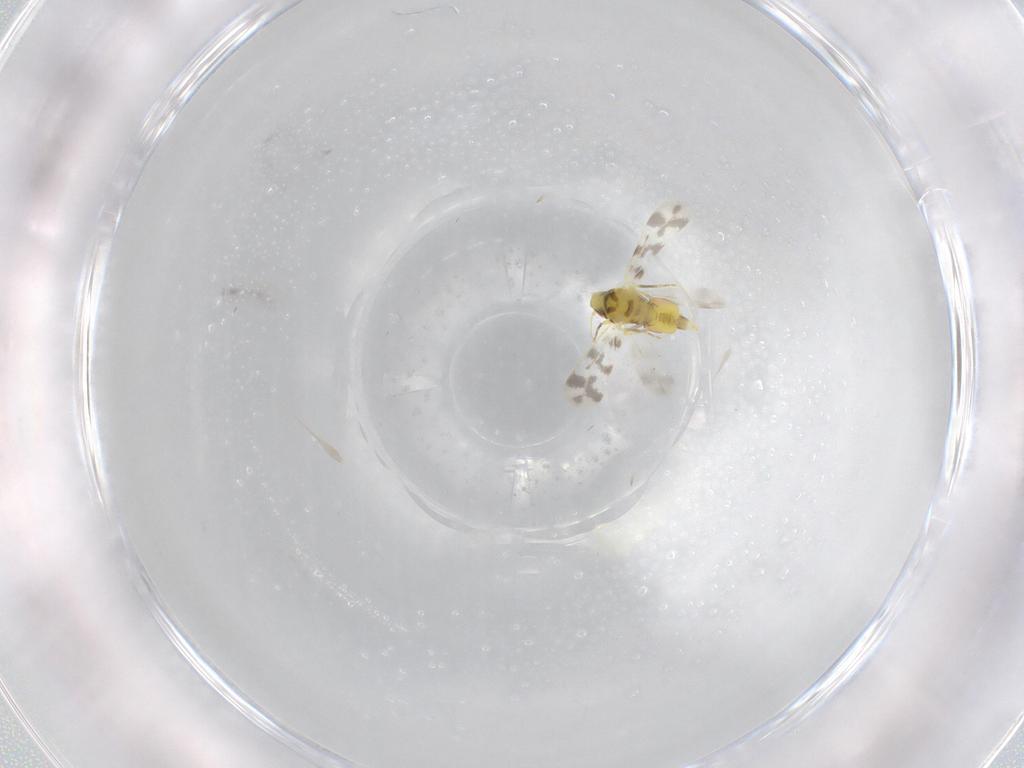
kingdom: Animalia
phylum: Arthropoda
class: Insecta
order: Hemiptera
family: Aleyrodidae
